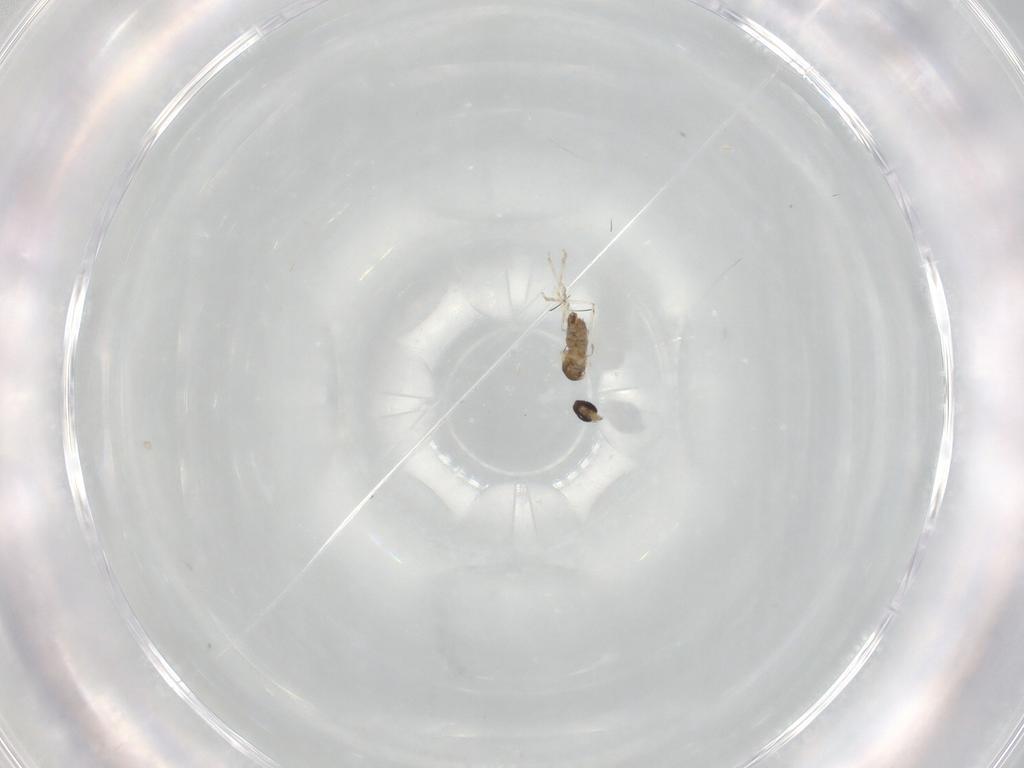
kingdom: Animalia
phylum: Arthropoda
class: Insecta
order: Diptera
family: Cecidomyiidae
